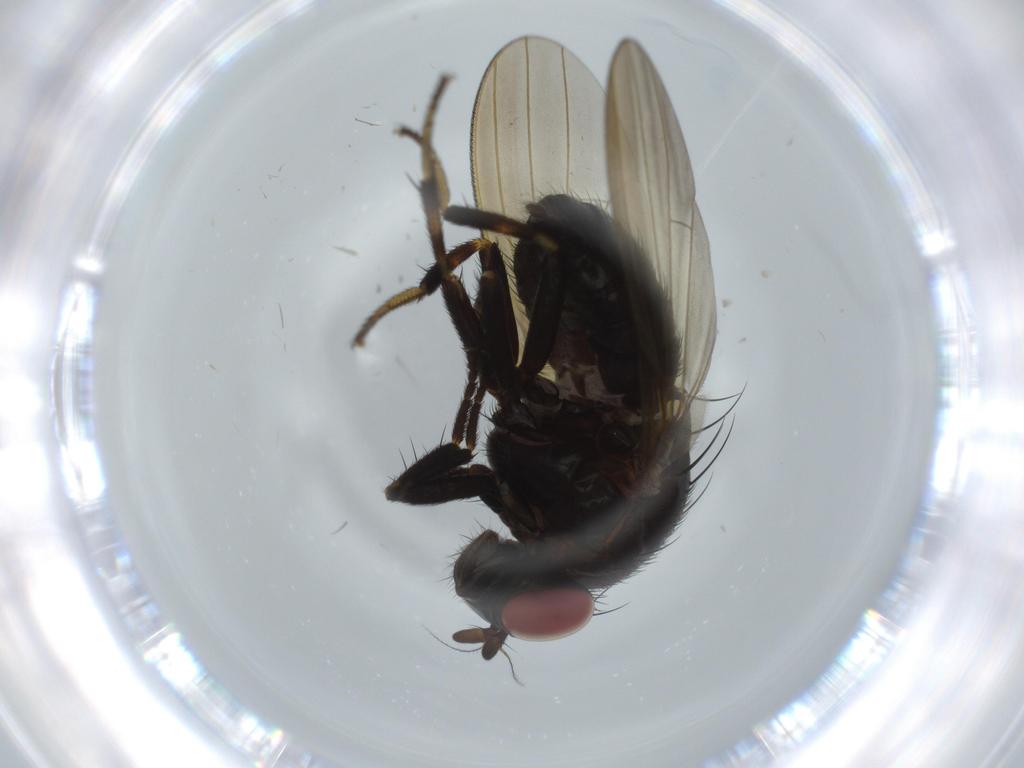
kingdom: Animalia
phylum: Arthropoda
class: Insecta
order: Diptera
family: Lauxaniidae
